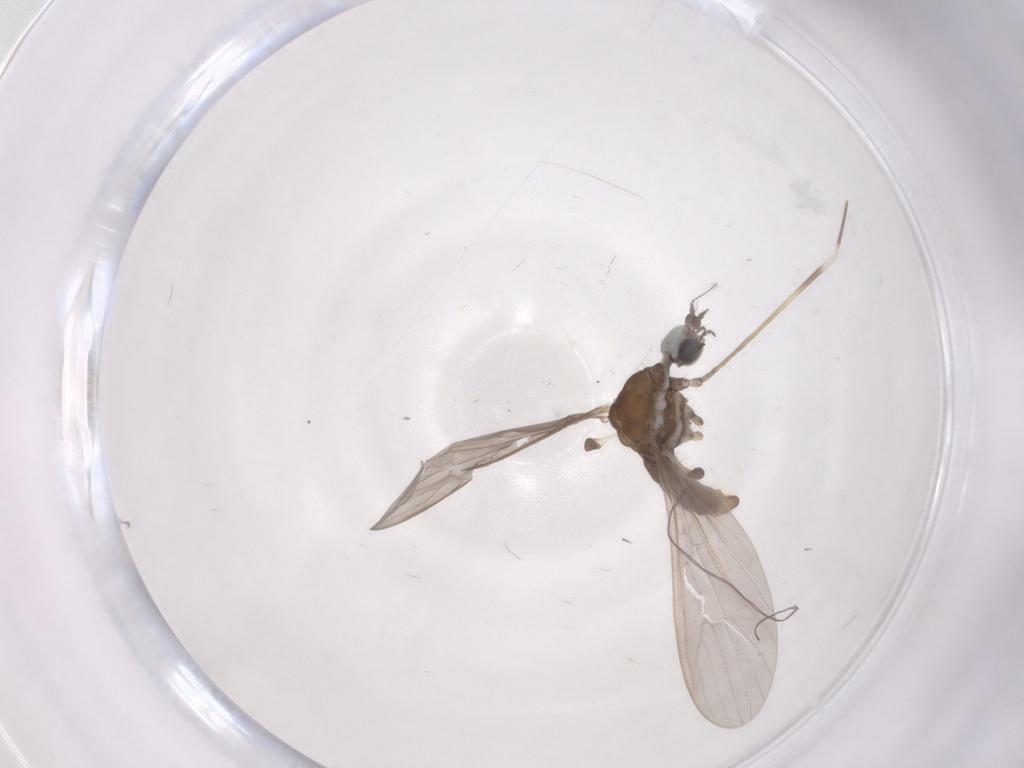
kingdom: Animalia
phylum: Arthropoda
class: Insecta
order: Diptera
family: Limoniidae
